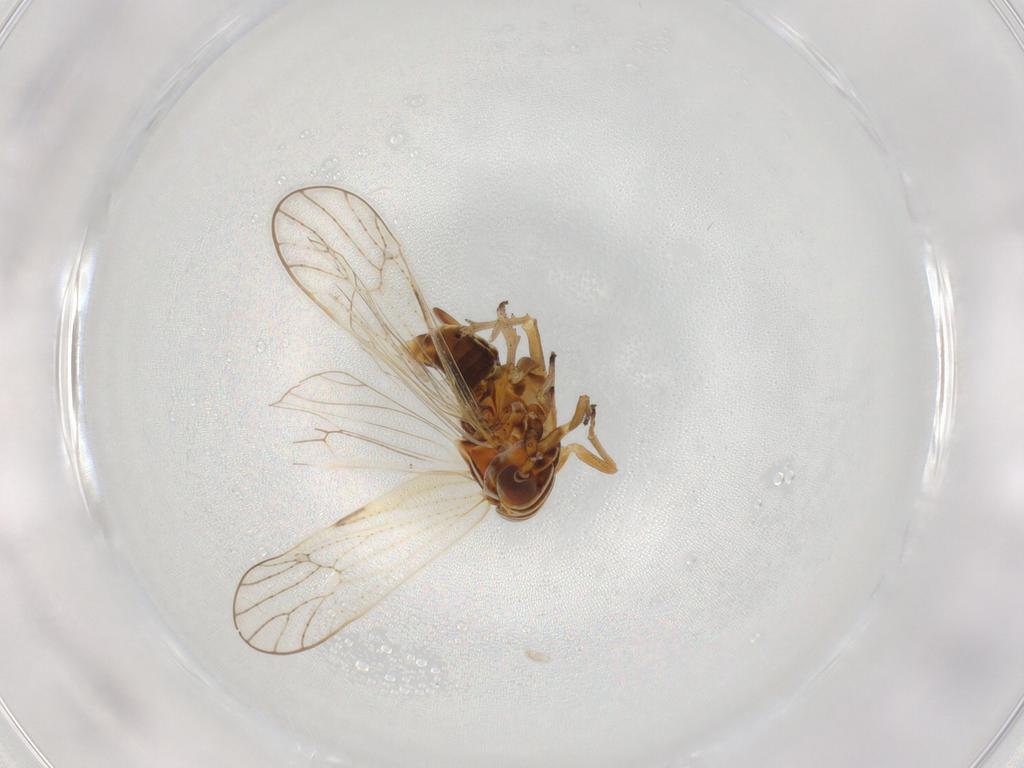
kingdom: Animalia
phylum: Arthropoda
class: Insecta
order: Hemiptera
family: Delphacidae
